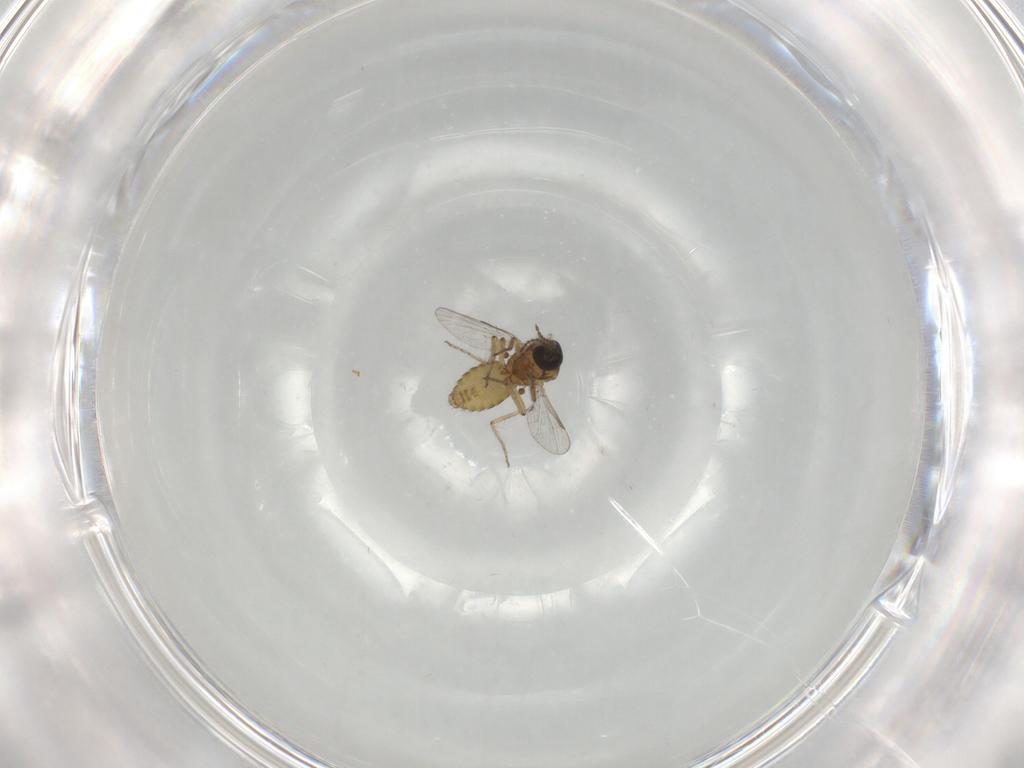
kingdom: Animalia
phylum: Arthropoda
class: Insecta
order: Diptera
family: Ceratopogonidae
